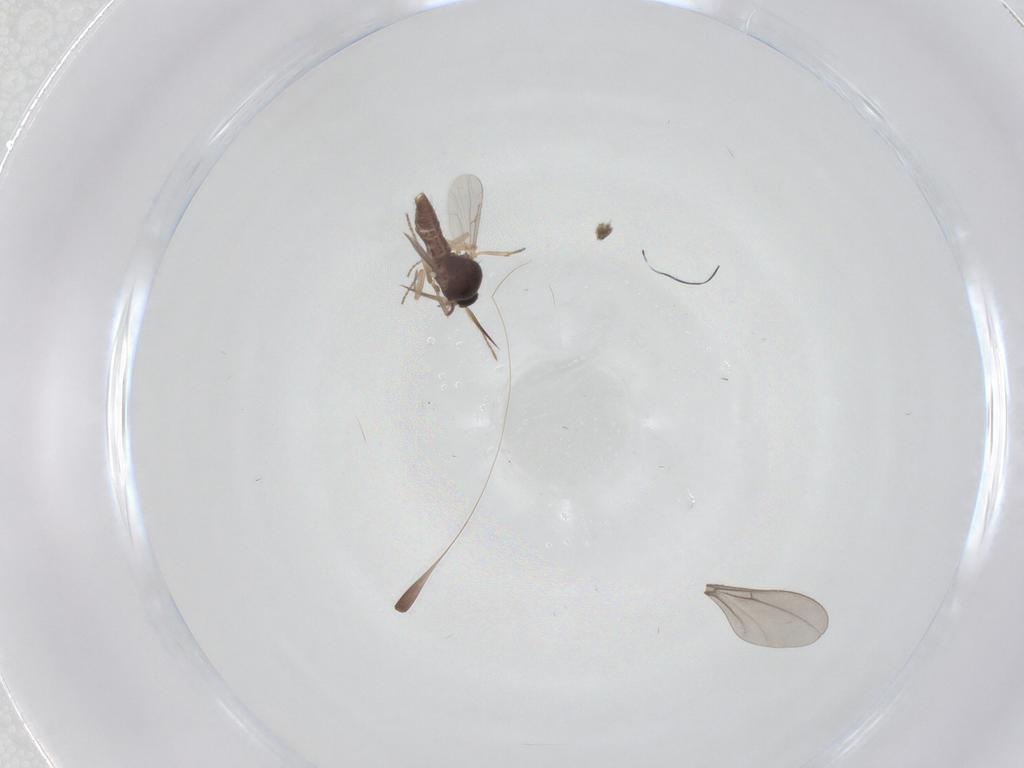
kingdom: Animalia
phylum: Arthropoda
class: Insecta
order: Diptera
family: Ceratopogonidae
